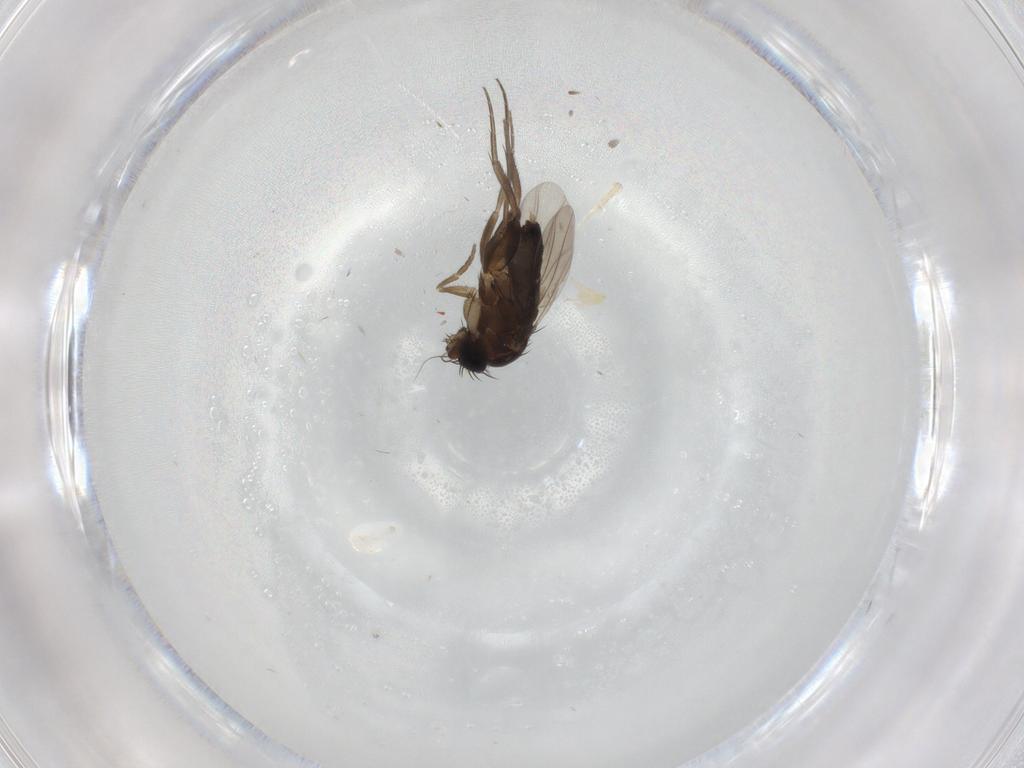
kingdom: Animalia
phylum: Arthropoda
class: Insecta
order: Diptera
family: Phoridae
